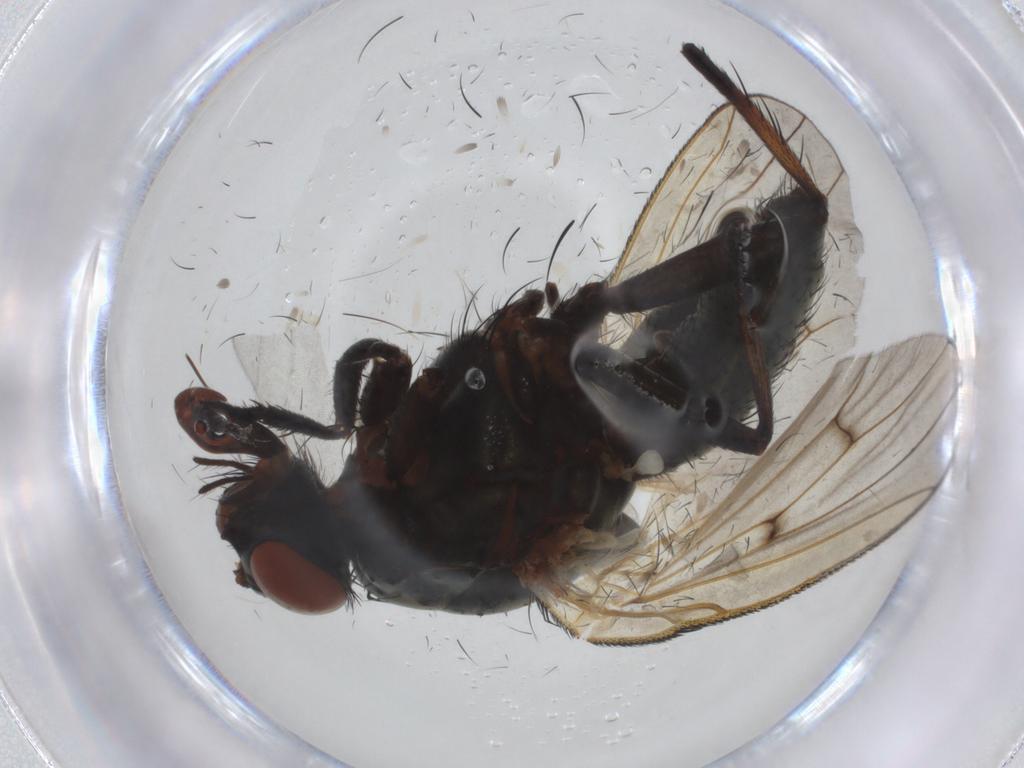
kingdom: Animalia
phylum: Arthropoda
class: Insecta
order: Diptera
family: Anthomyiidae
